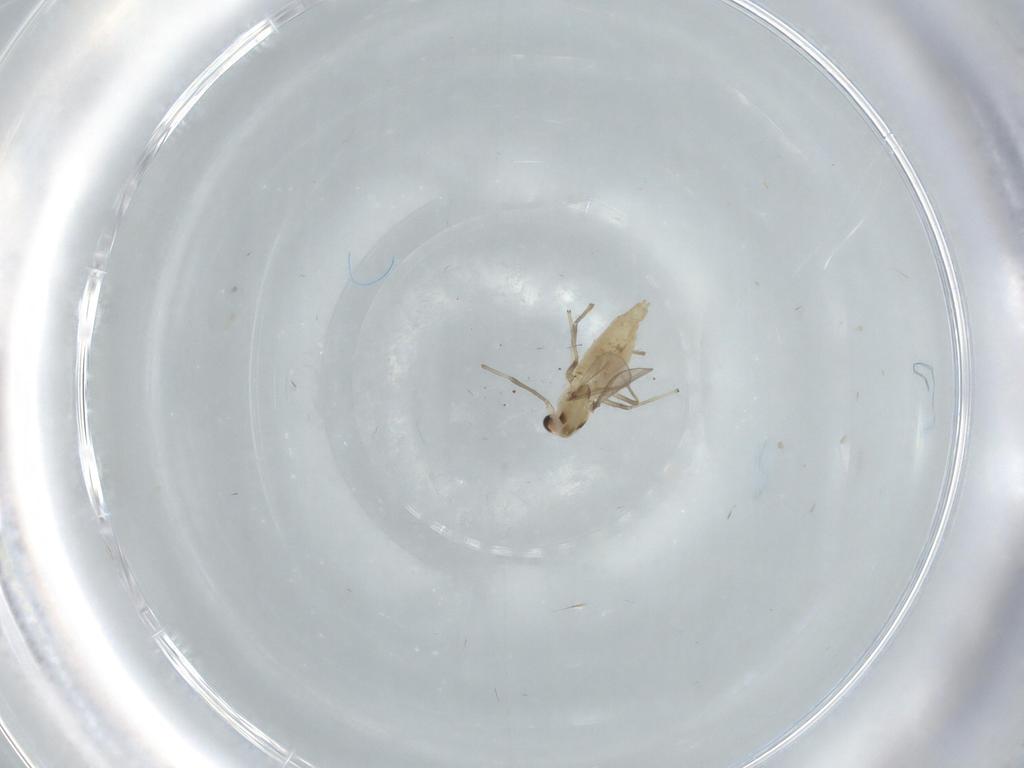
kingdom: Animalia
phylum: Arthropoda
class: Insecta
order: Diptera
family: Chironomidae
